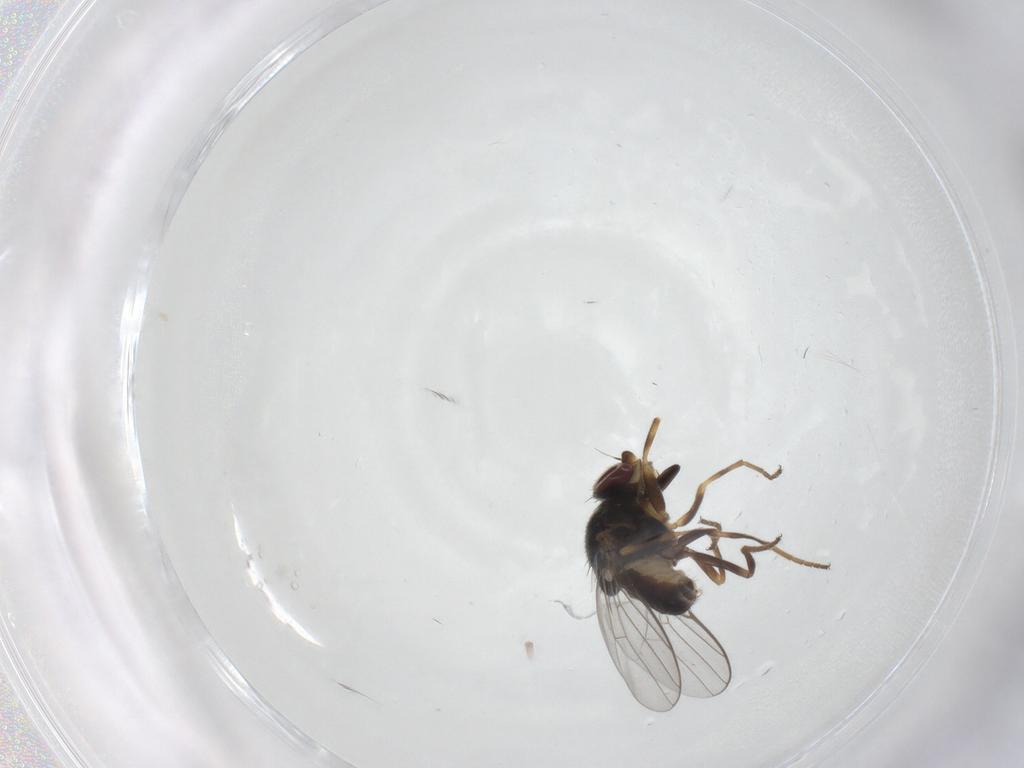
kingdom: Animalia
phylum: Arthropoda
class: Insecta
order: Diptera
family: Chloropidae
